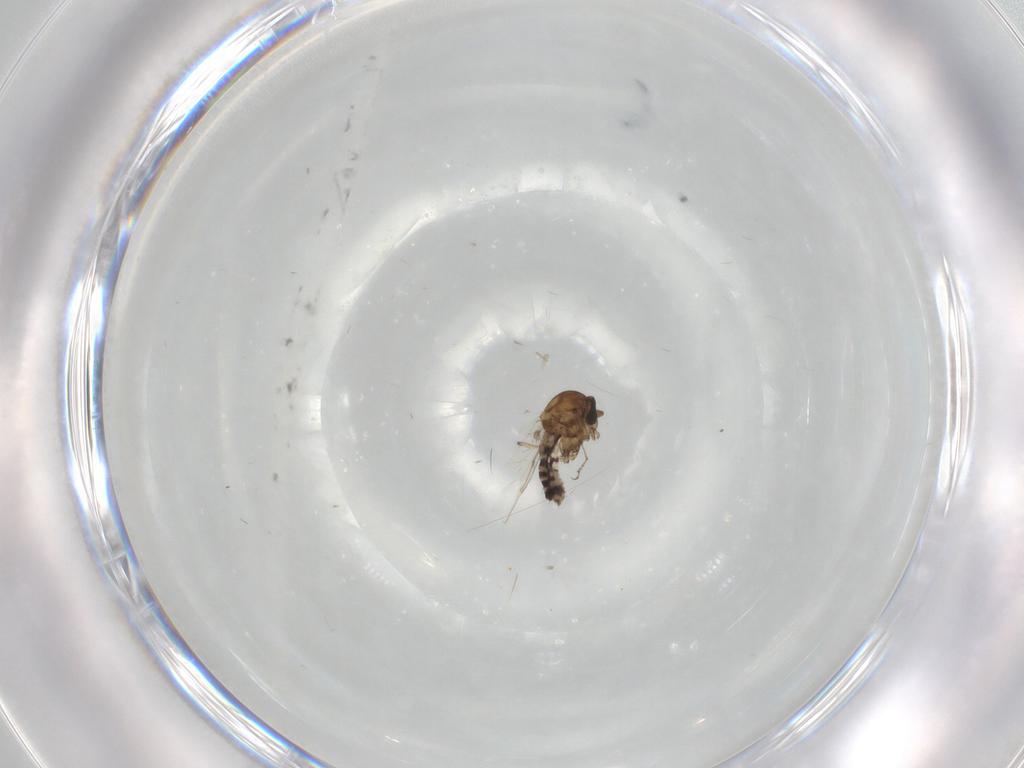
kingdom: Animalia
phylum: Arthropoda
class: Insecta
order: Diptera
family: Ceratopogonidae
